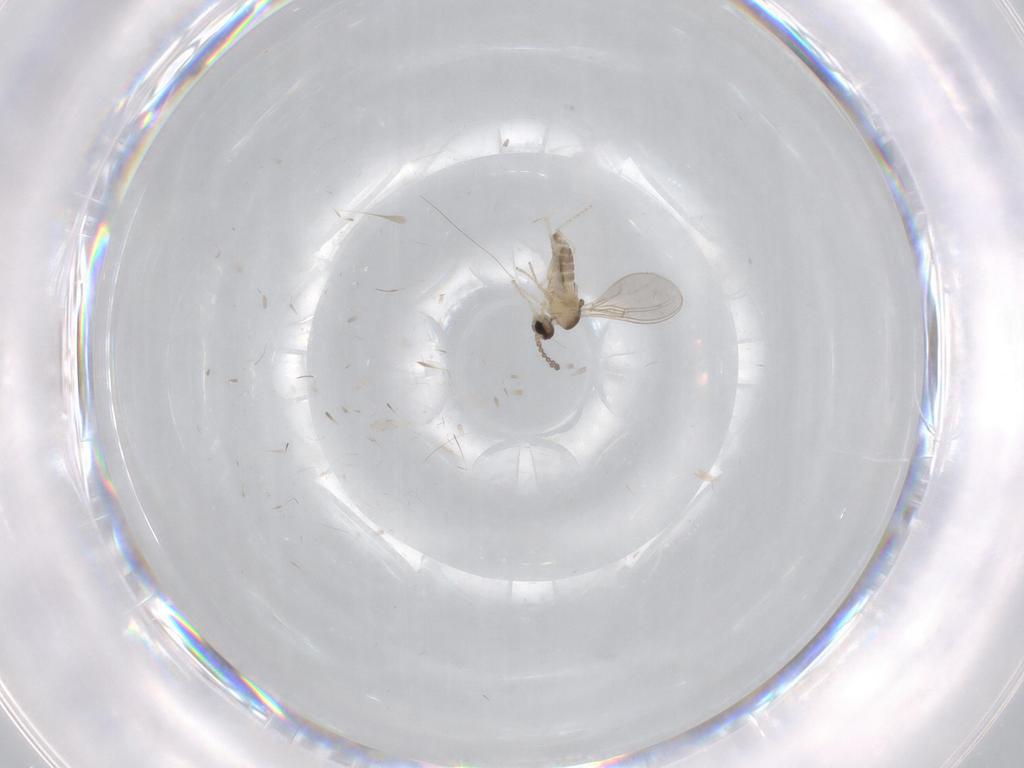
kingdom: Animalia
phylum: Arthropoda
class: Insecta
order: Diptera
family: Cecidomyiidae
